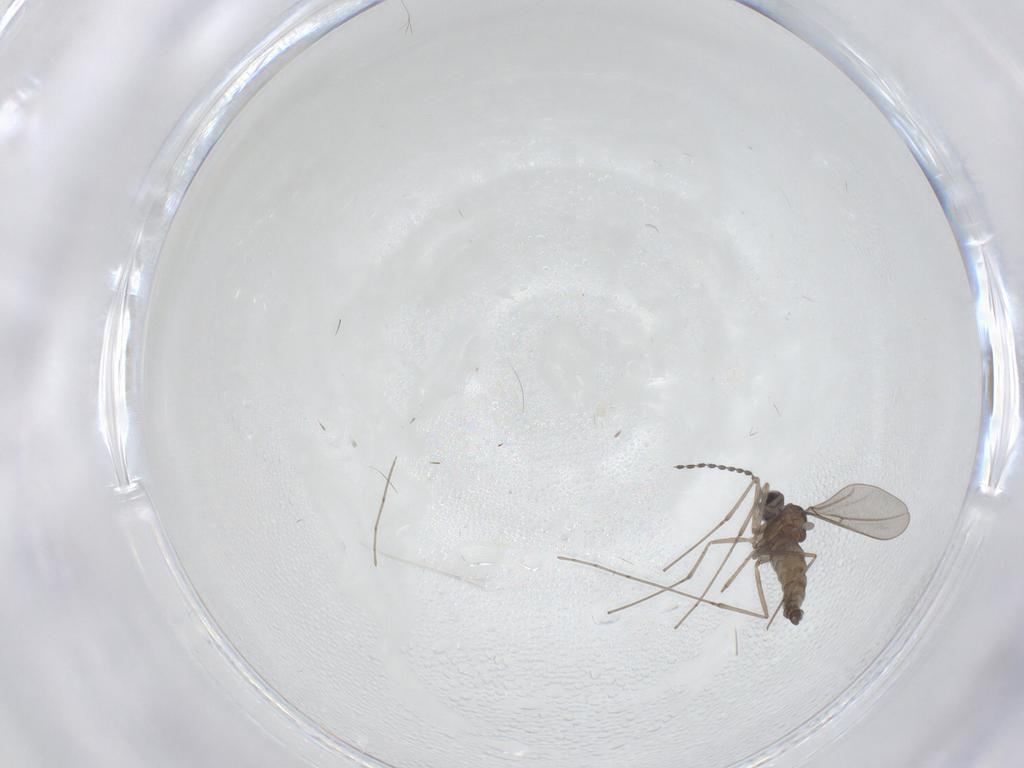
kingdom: Animalia
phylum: Arthropoda
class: Insecta
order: Diptera
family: Cecidomyiidae
